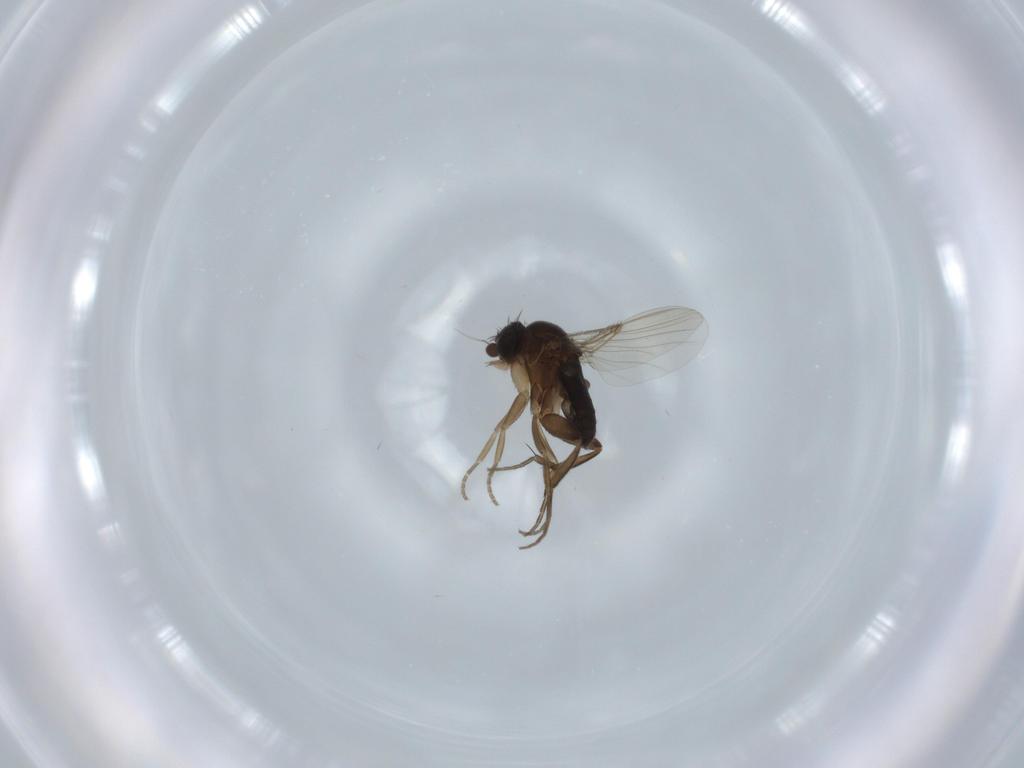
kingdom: Animalia
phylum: Arthropoda
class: Insecta
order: Diptera
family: Phoridae
